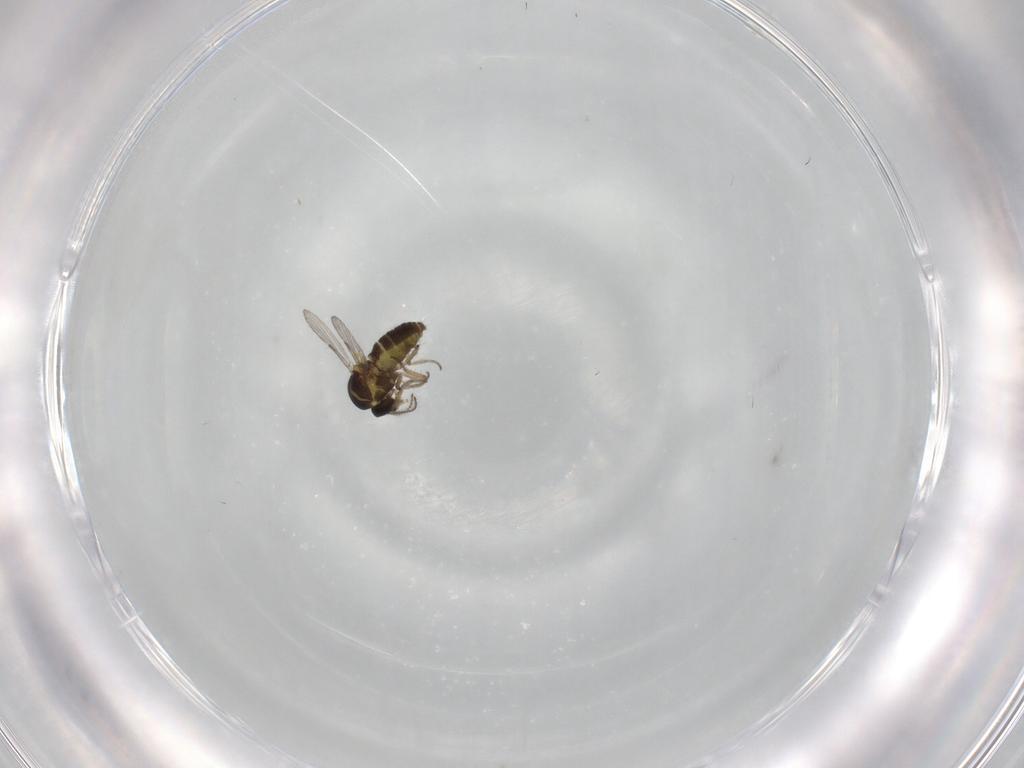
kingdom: Animalia
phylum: Arthropoda
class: Insecta
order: Diptera
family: Ceratopogonidae
